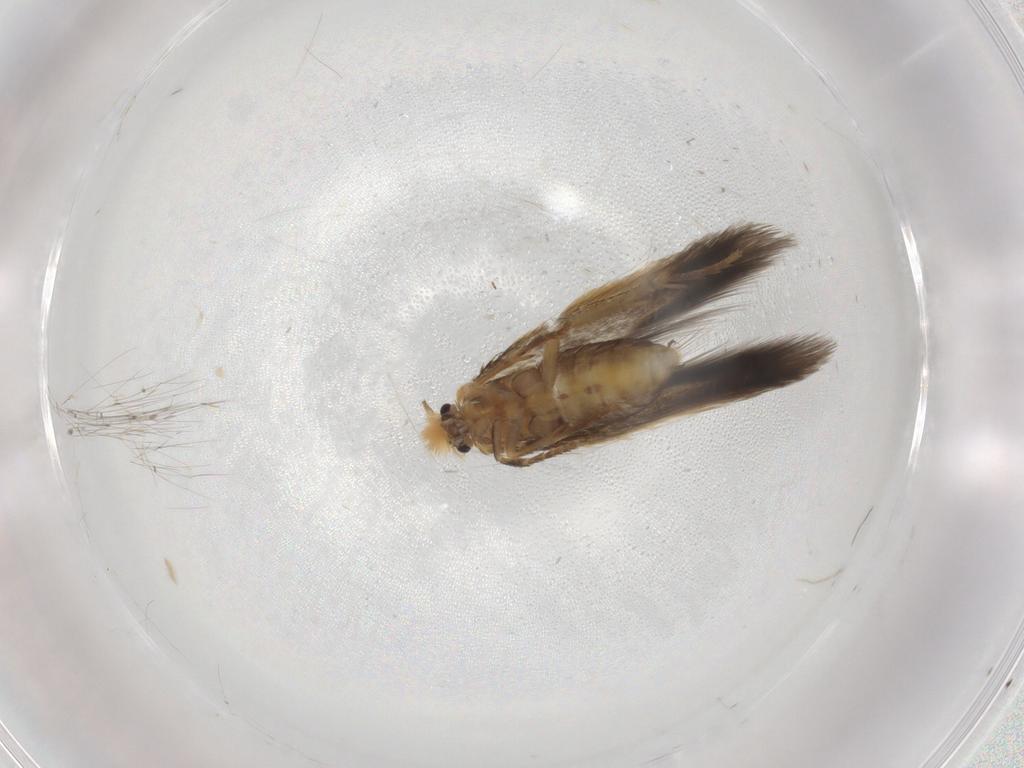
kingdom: Animalia
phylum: Arthropoda
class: Insecta
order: Lepidoptera
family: Nepticulidae
